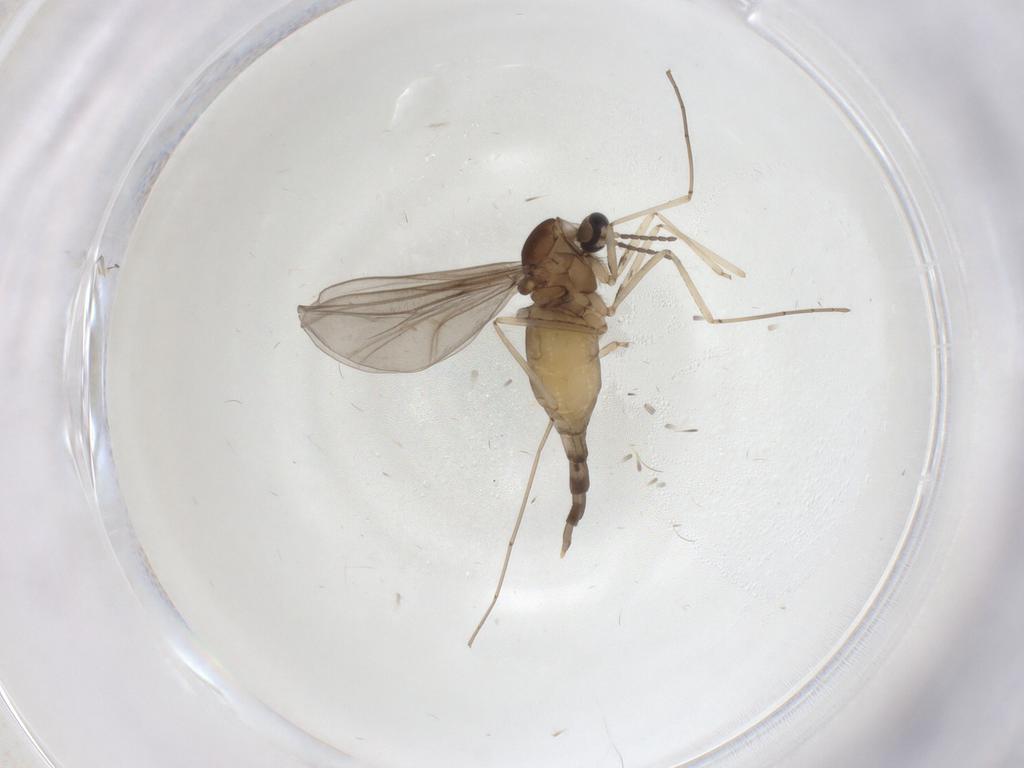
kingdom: Animalia
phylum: Arthropoda
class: Insecta
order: Diptera
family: Cecidomyiidae
